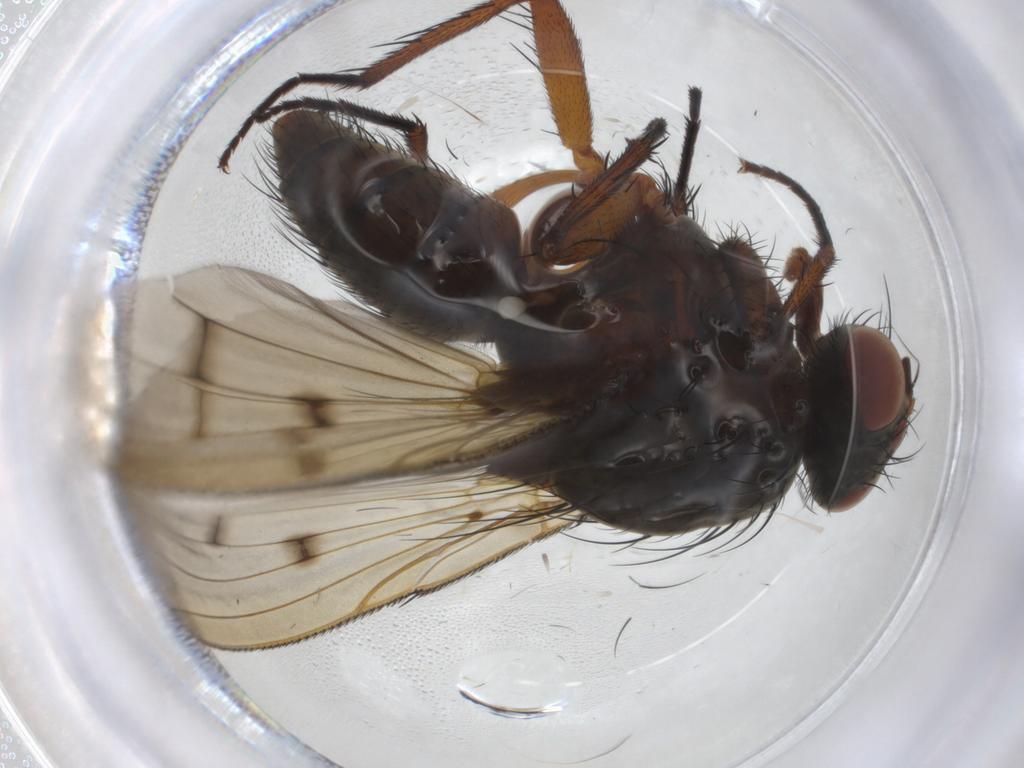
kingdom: Animalia
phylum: Arthropoda
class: Insecta
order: Diptera
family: Anthomyiidae
